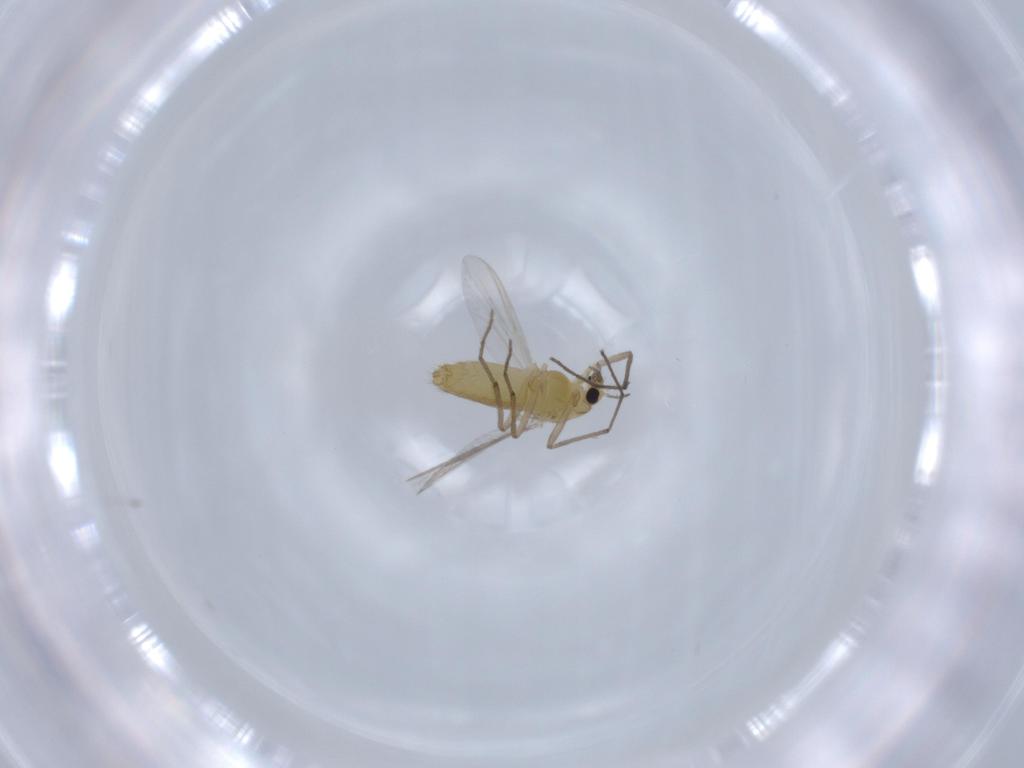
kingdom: Animalia
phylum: Arthropoda
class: Insecta
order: Diptera
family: Chironomidae
